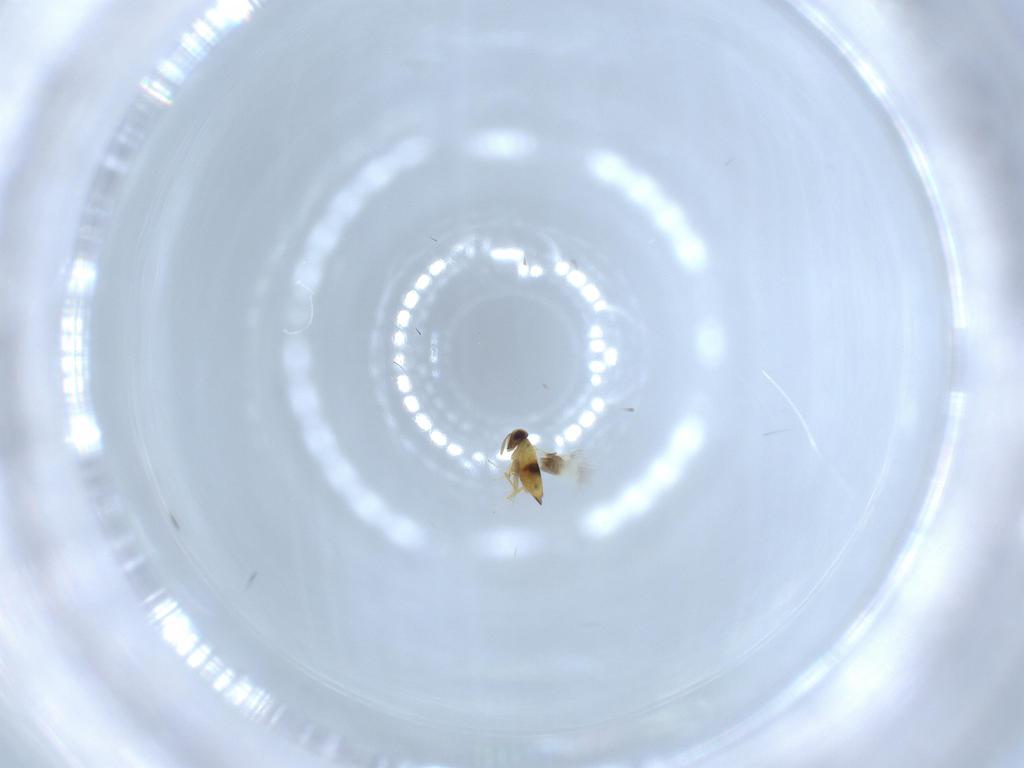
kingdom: Animalia
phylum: Arthropoda
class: Insecta
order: Hymenoptera
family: Signiphoridae
